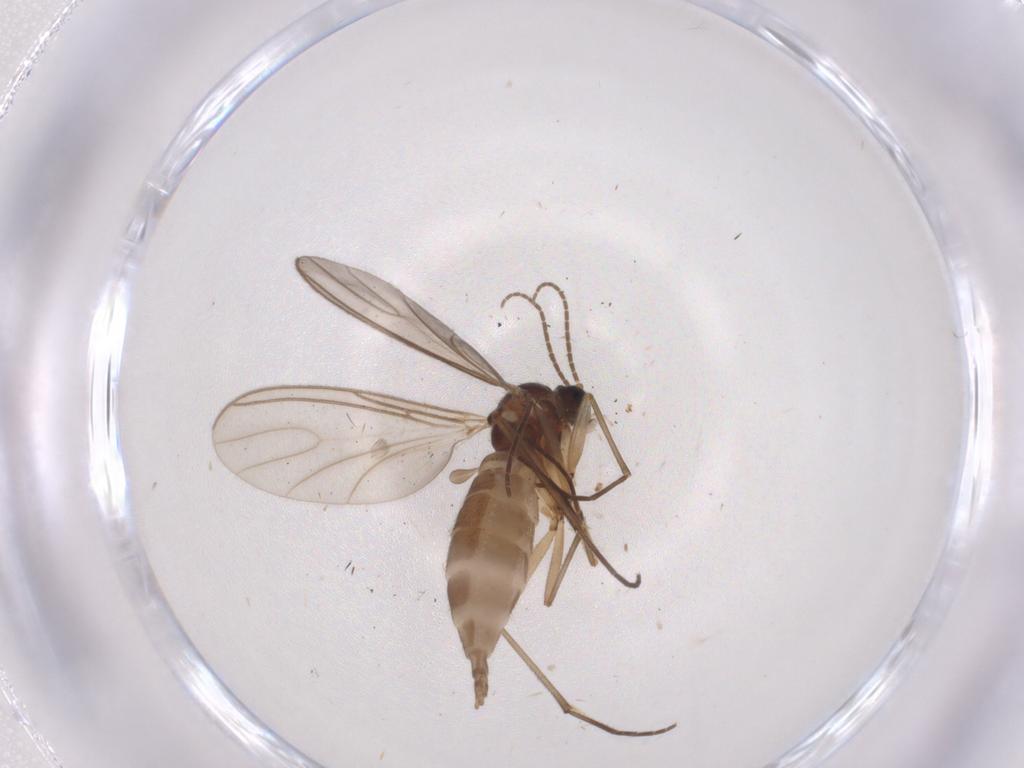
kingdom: Animalia
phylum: Arthropoda
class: Insecta
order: Diptera
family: Sciaridae
